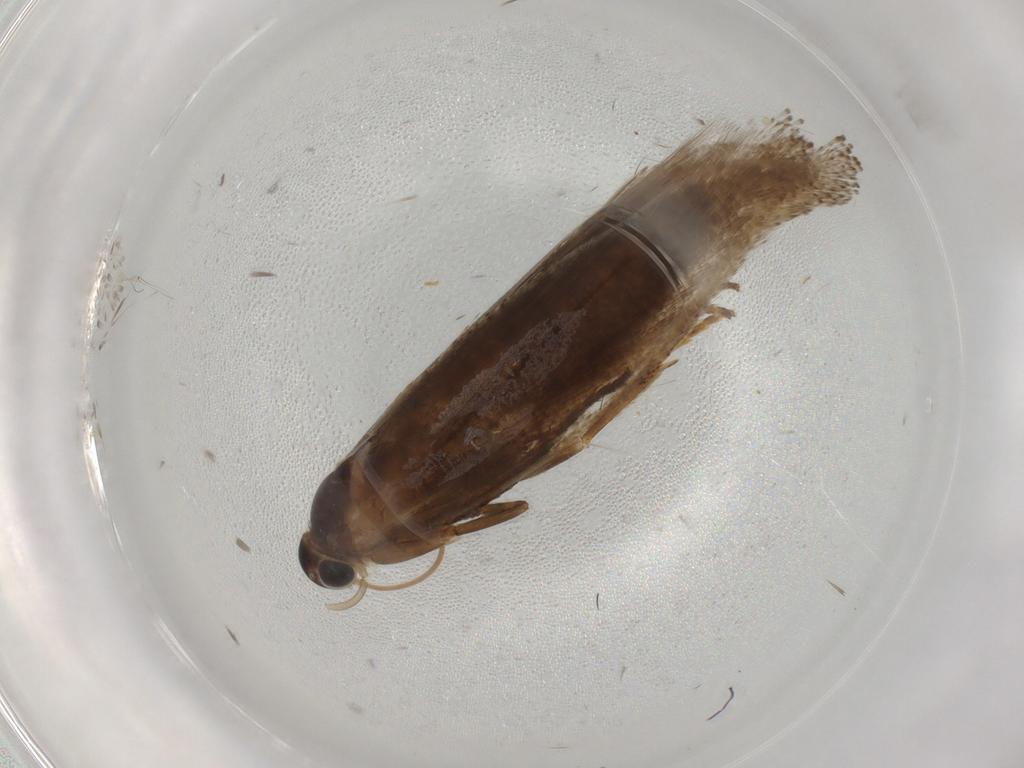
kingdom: Animalia
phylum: Arthropoda
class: Insecta
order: Lepidoptera
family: Oecophoridae
